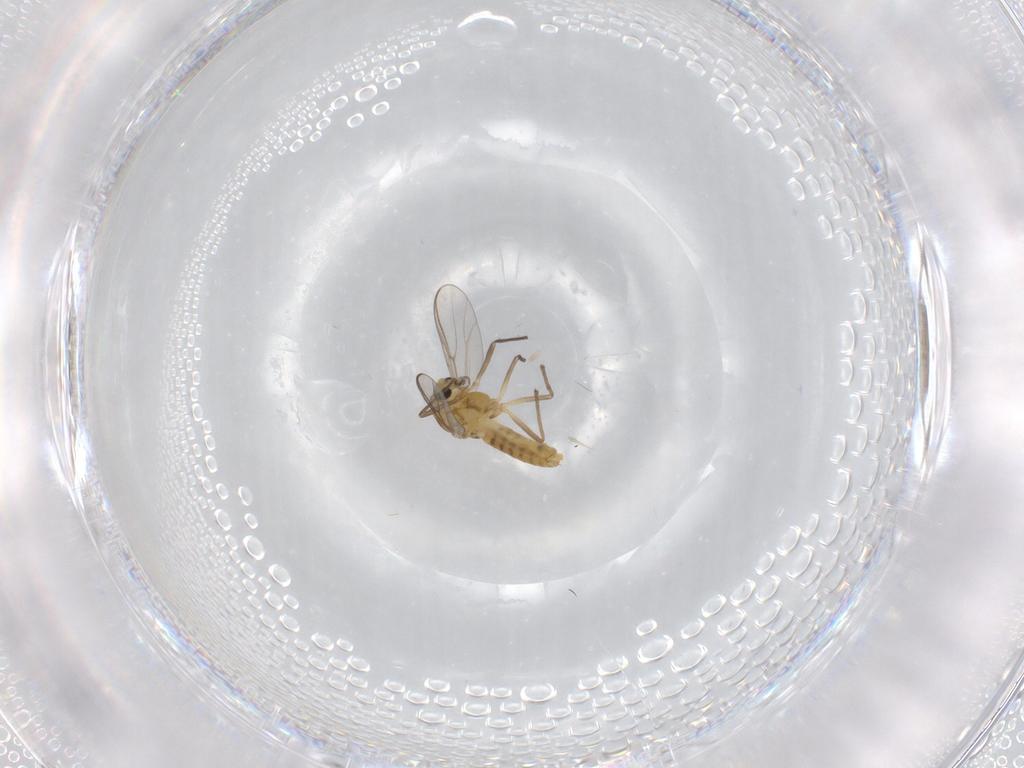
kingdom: Animalia
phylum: Arthropoda
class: Insecta
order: Diptera
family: Chironomidae
